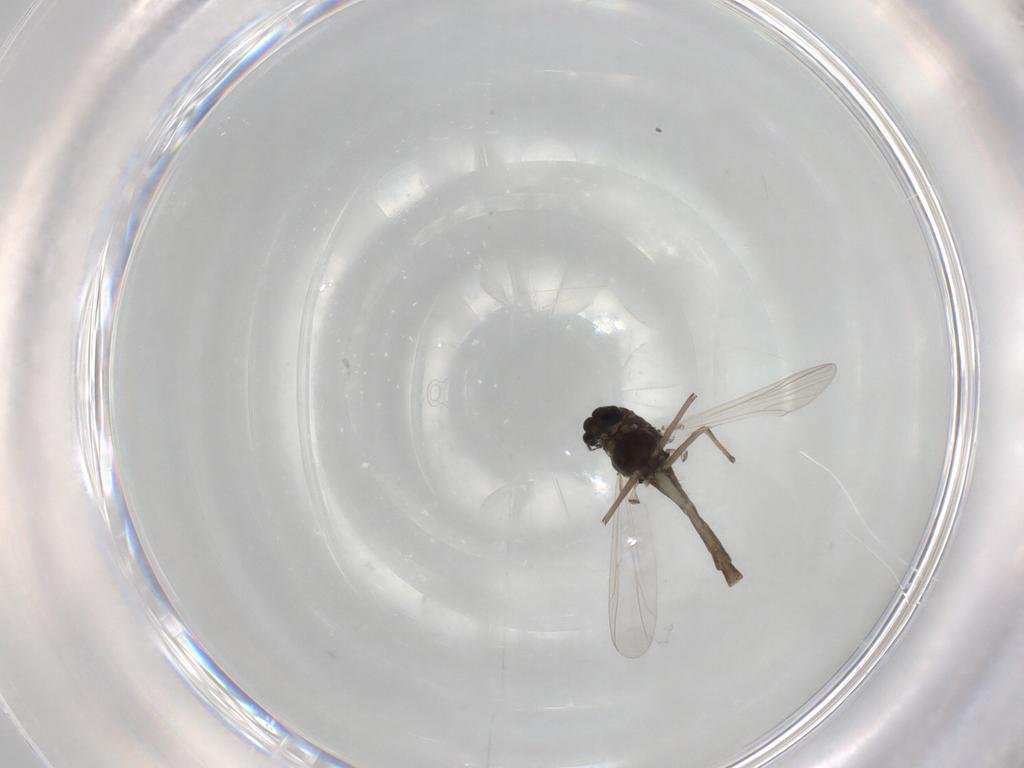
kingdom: Animalia
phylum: Arthropoda
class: Insecta
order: Diptera
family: Chironomidae
